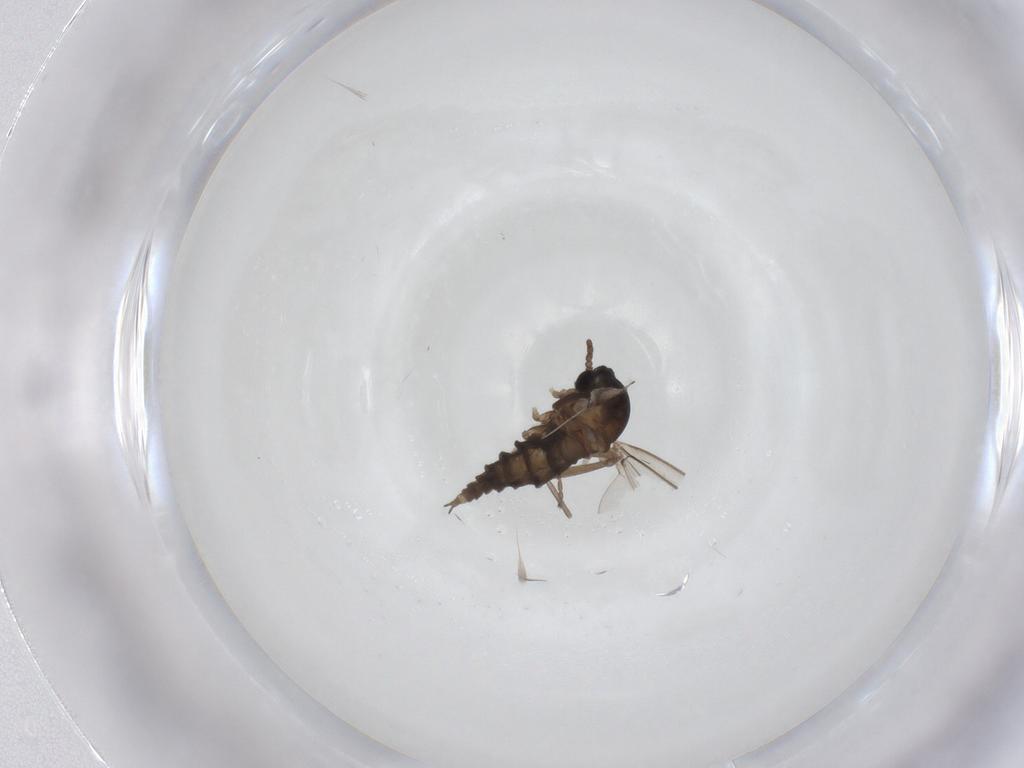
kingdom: Animalia
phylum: Arthropoda
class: Insecta
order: Diptera
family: Cecidomyiidae
